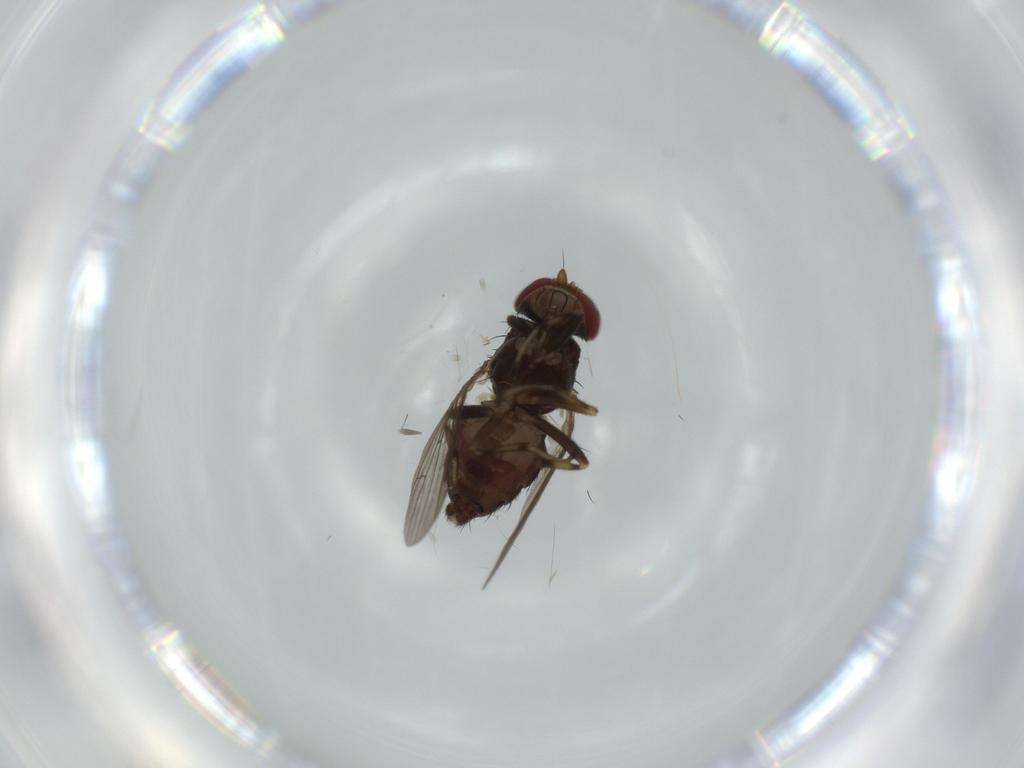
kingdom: Animalia
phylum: Arthropoda
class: Insecta
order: Diptera
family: Heleomyzidae
